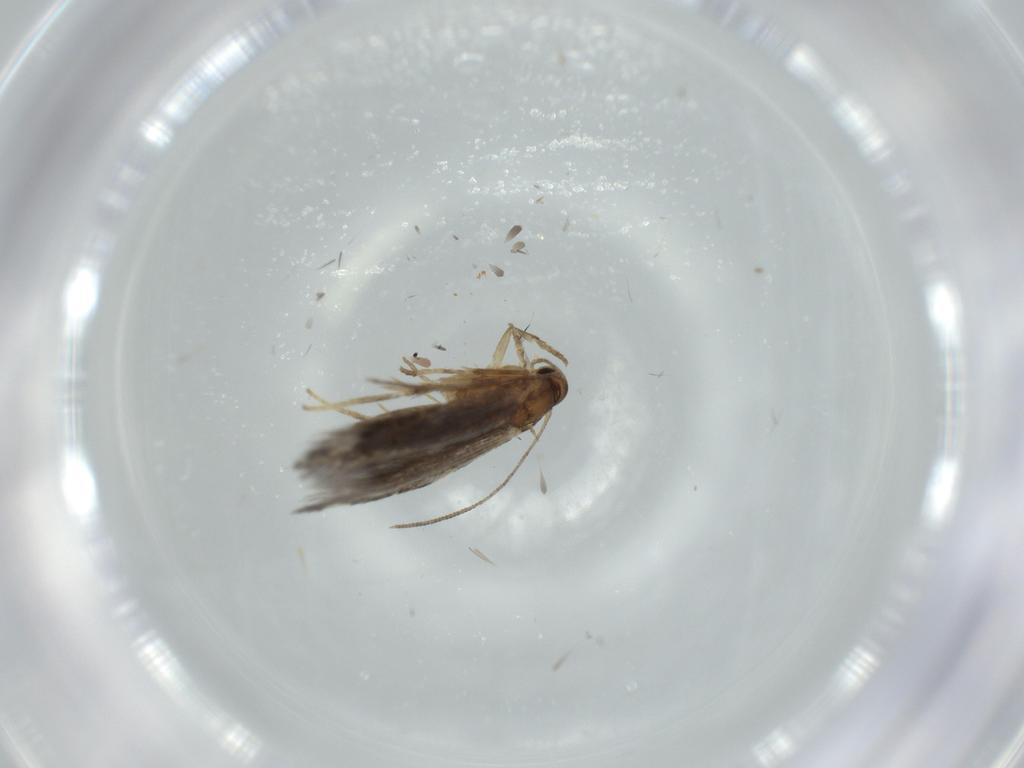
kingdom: Animalia
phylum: Arthropoda
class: Insecta
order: Lepidoptera
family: Cosmopterigidae
